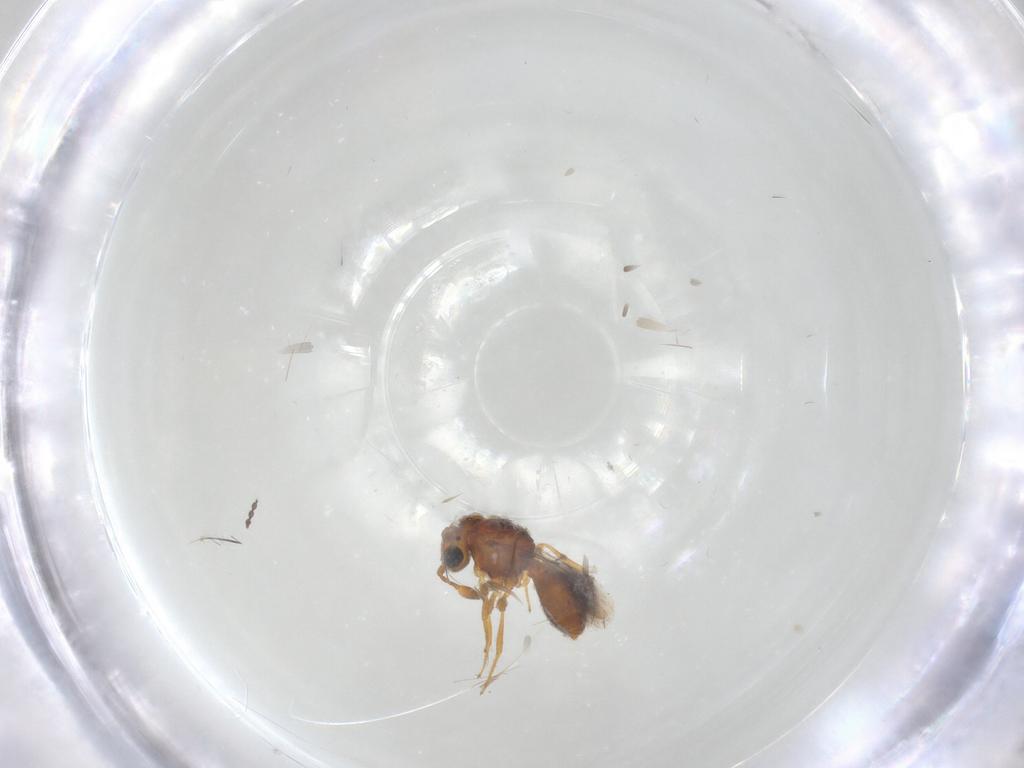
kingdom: Animalia
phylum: Arthropoda
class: Insecta
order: Hymenoptera
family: Scelionidae
